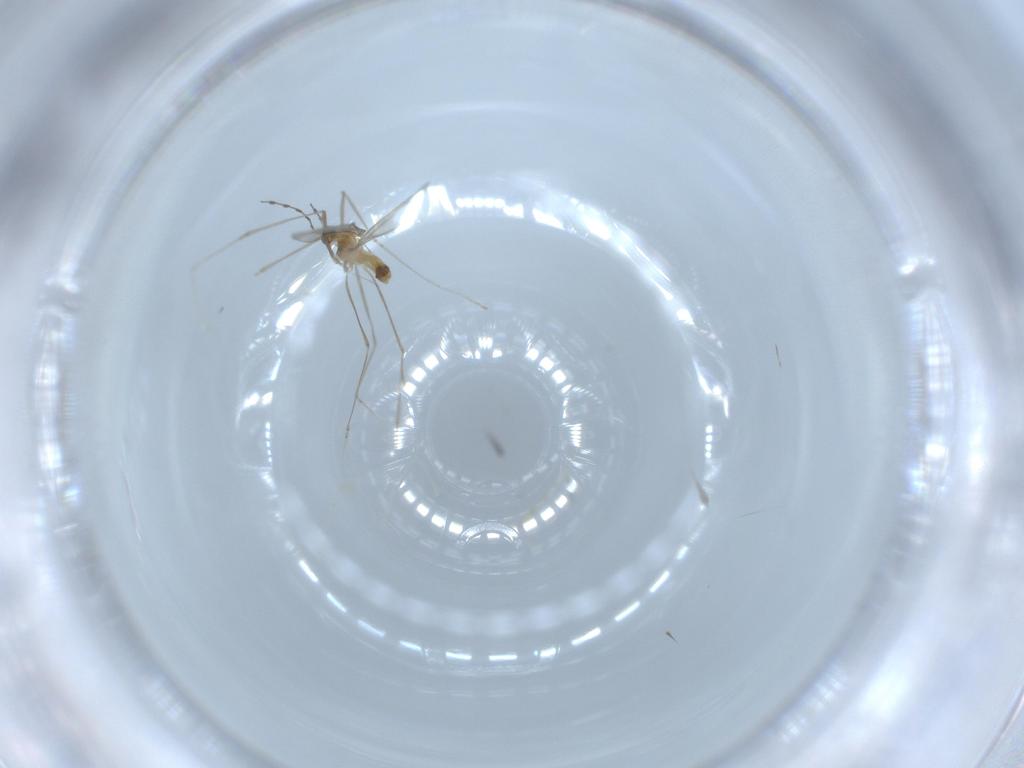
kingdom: Animalia
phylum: Arthropoda
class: Insecta
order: Diptera
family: Cecidomyiidae
